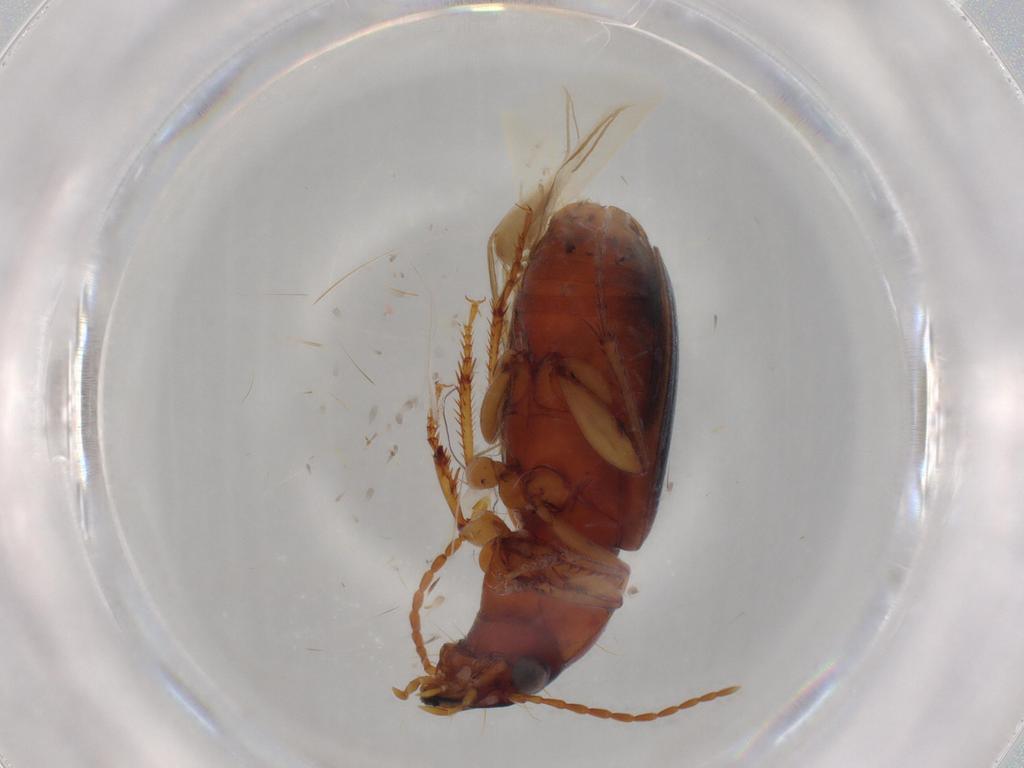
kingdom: Animalia
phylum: Arthropoda
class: Insecta
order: Coleoptera
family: Carabidae
